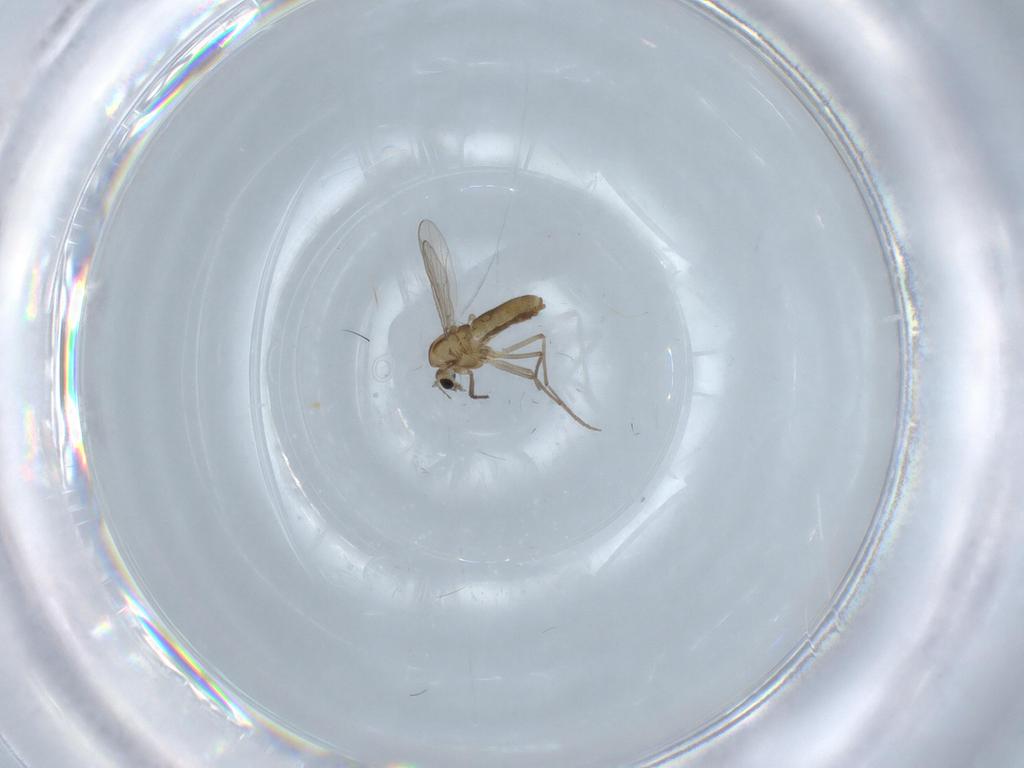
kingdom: Animalia
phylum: Arthropoda
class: Insecta
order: Diptera
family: Chironomidae
